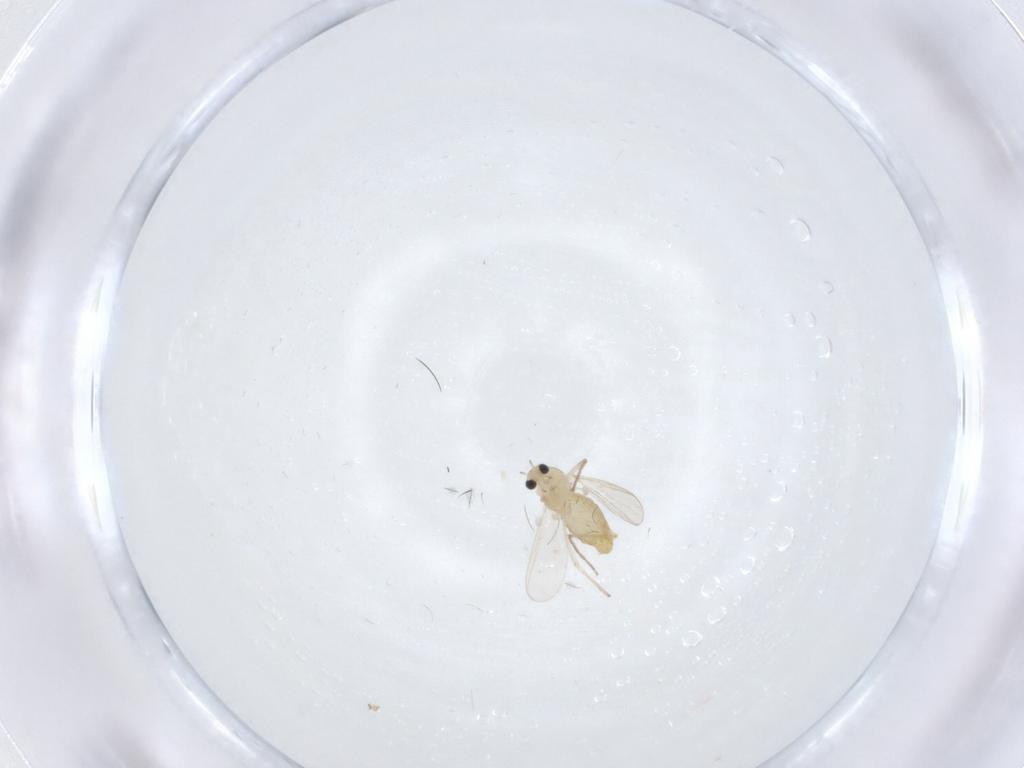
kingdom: Animalia
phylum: Arthropoda
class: Insecta
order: Diptera
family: Chironomidae
